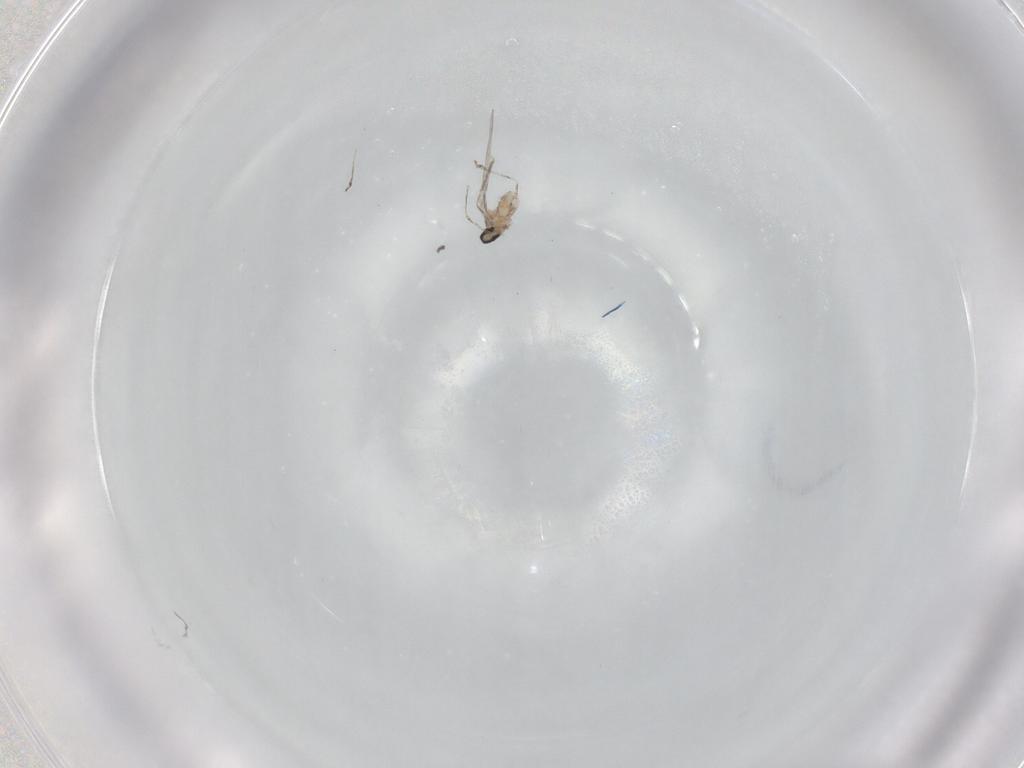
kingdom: Animalia
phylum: Arthropoda
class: Insecta
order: Diptera
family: Cecidomyiidae
